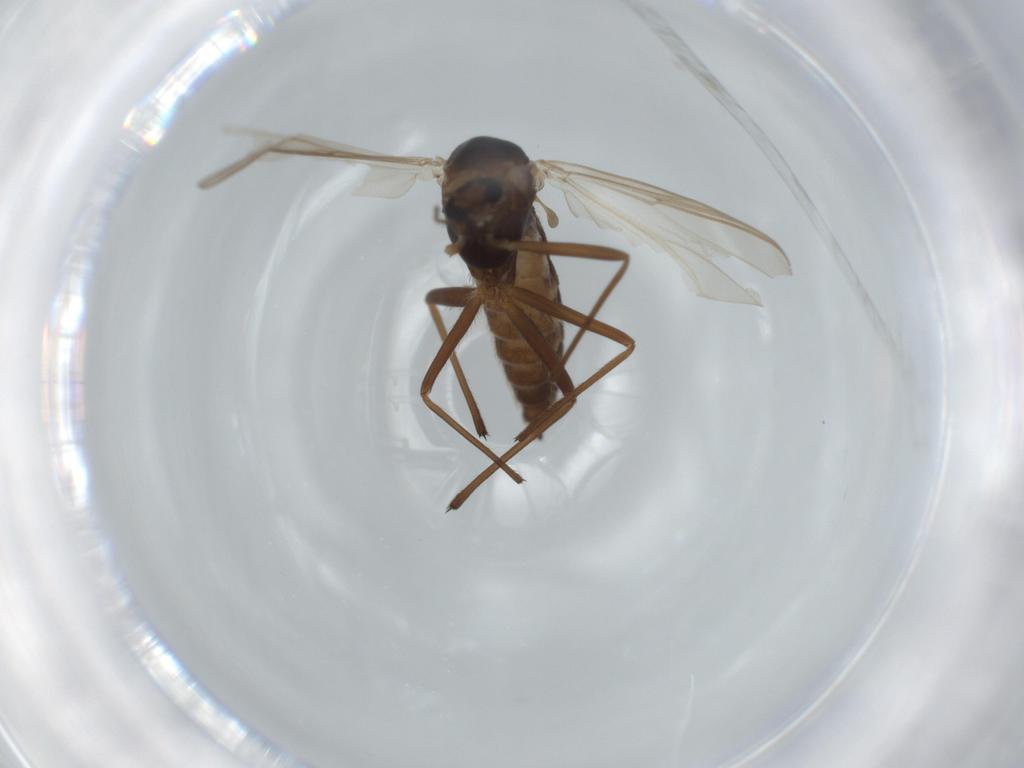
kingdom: Animalia
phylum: Arthropoda
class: Insecta
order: Diptera
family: Chironomidae
